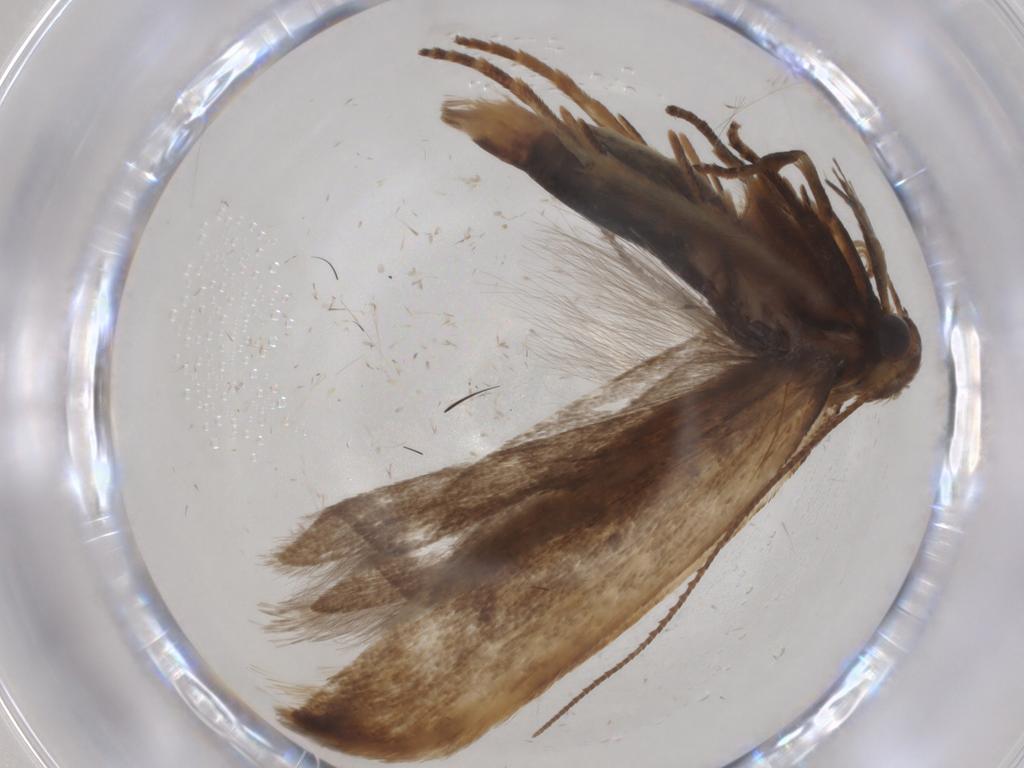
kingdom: Animalia
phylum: Arthropoda
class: Insecta
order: Lepidoptera
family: Gelechiidae
